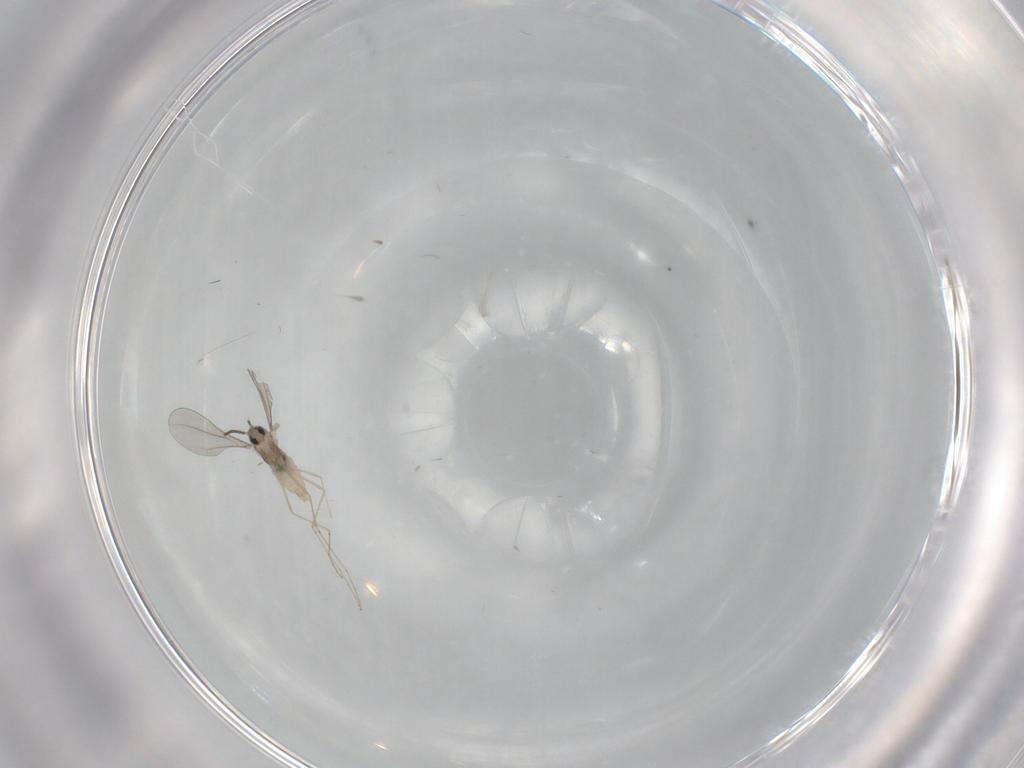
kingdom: Animalia
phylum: Arthropoda
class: Insecta
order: Diptera
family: Cecidomyiidae
